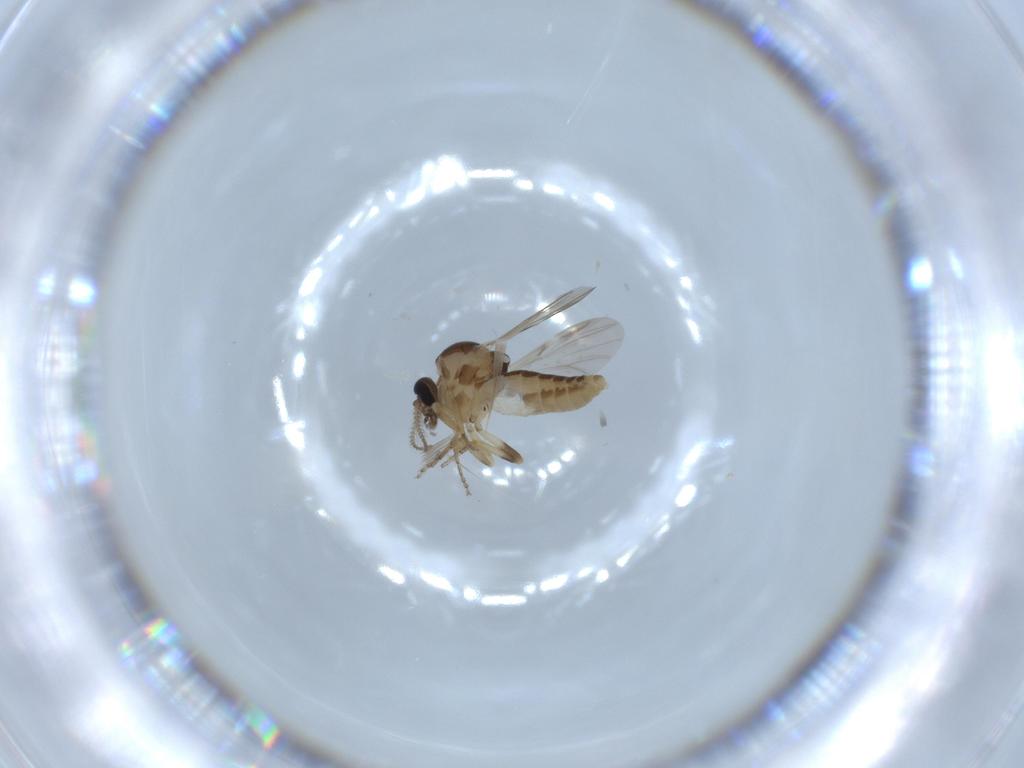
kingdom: Animalia
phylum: Arthropoda
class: Insecta
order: Diptera
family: Ceratopogonidae
